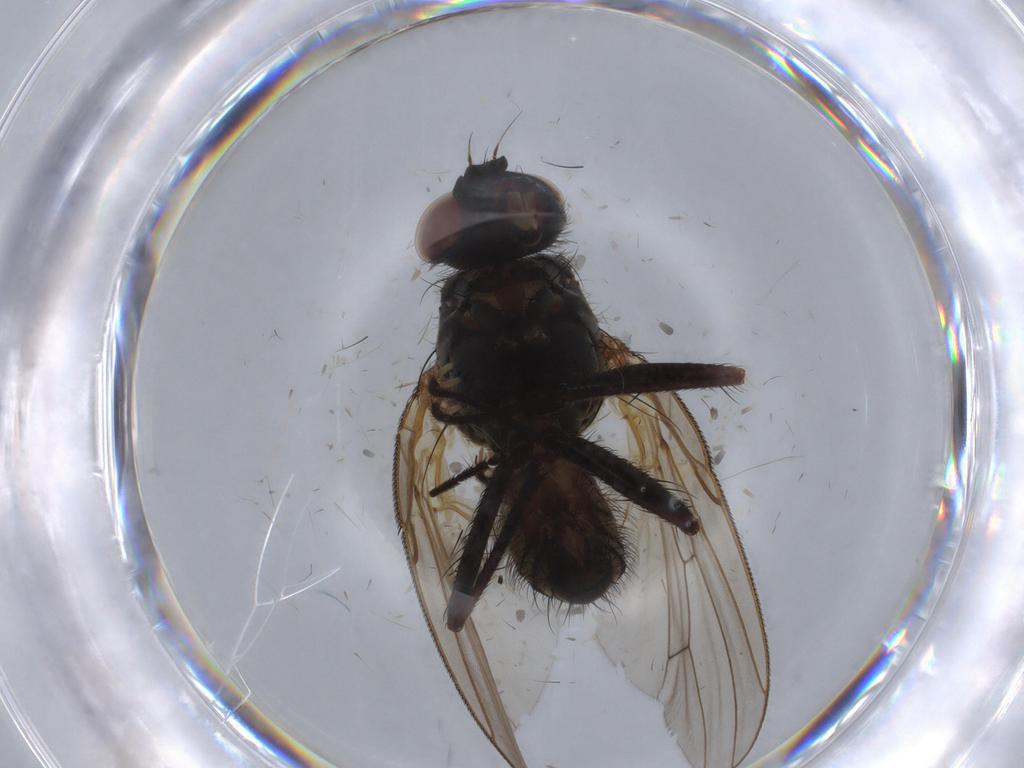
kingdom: Animalia
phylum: Arthropoda
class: Insecta
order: Diptera
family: Anthomyiidae
